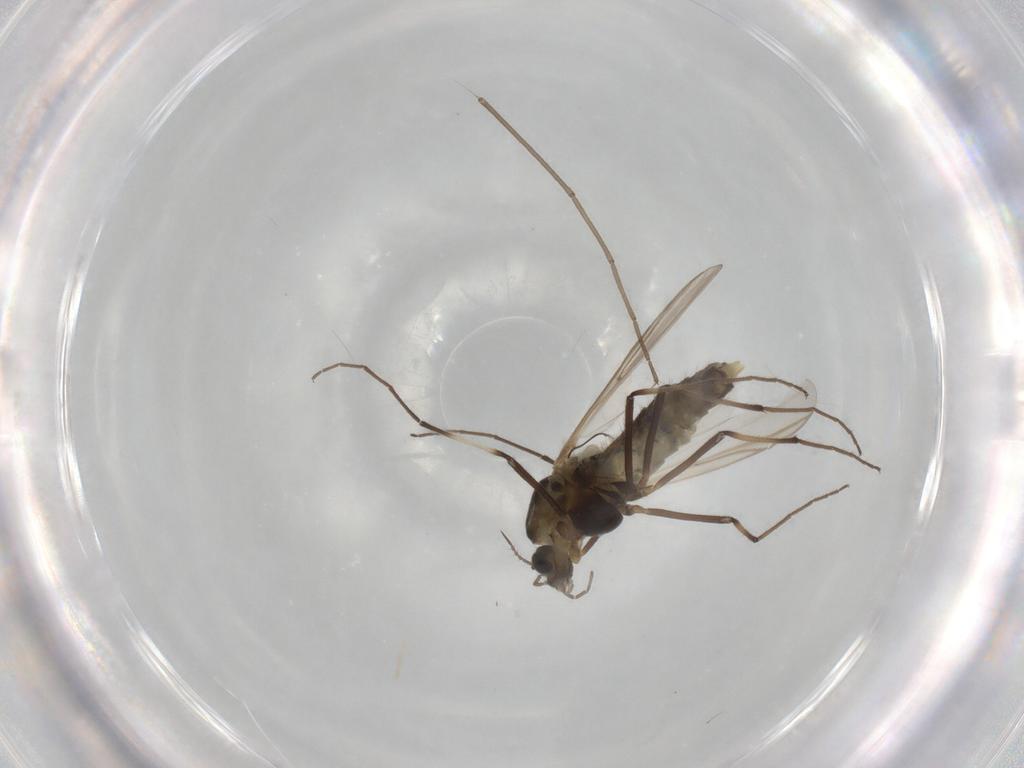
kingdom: Animalia
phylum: Arthropoda
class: Insecta
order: Diptera
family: Chironomidae
